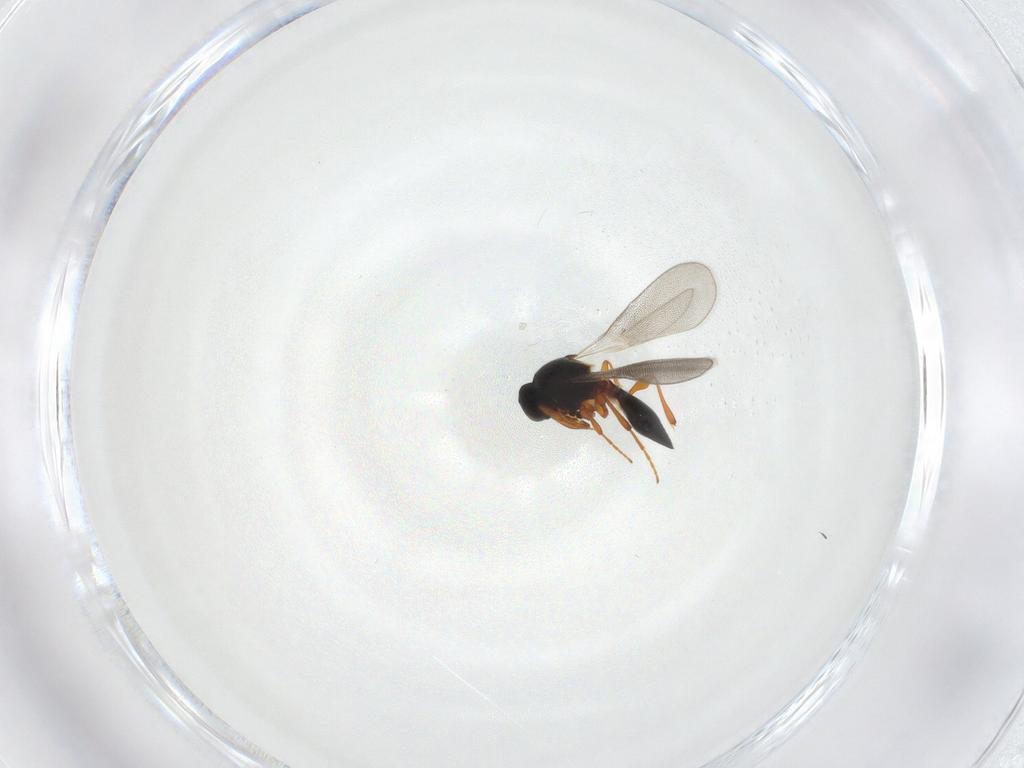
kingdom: Animalia
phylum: Arthropoda
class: Insecta
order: Hymenoptera
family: Platygastridae
